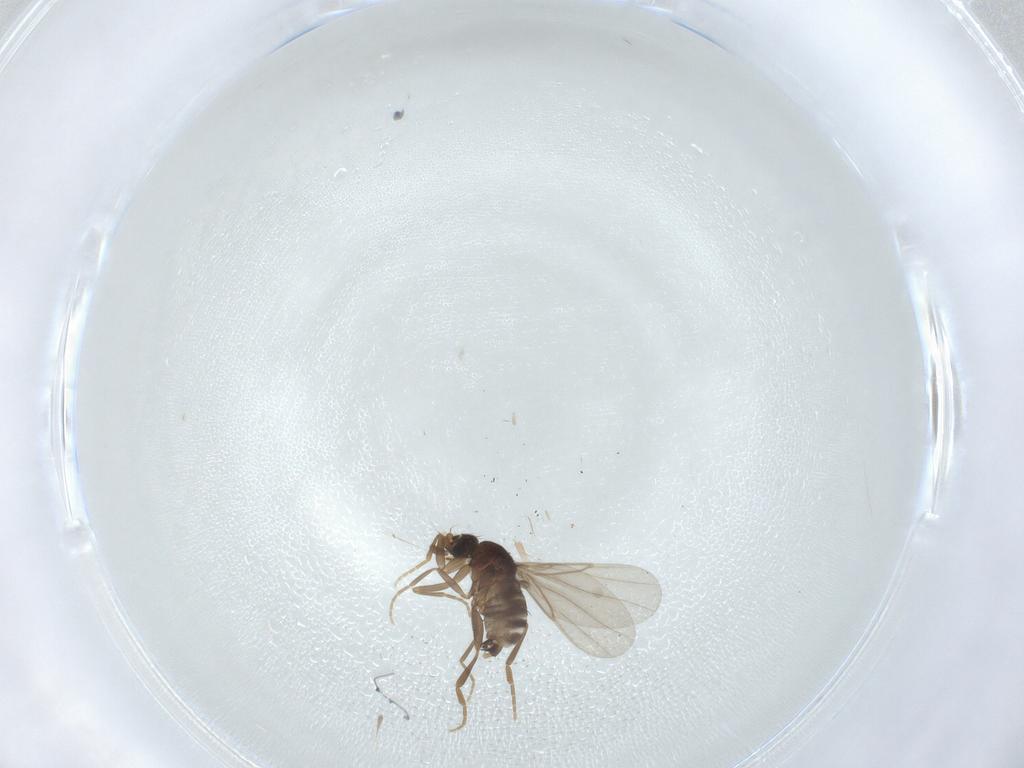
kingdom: Animalia
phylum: Arthropoda
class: Insecta
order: Diptera
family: Phoridae
